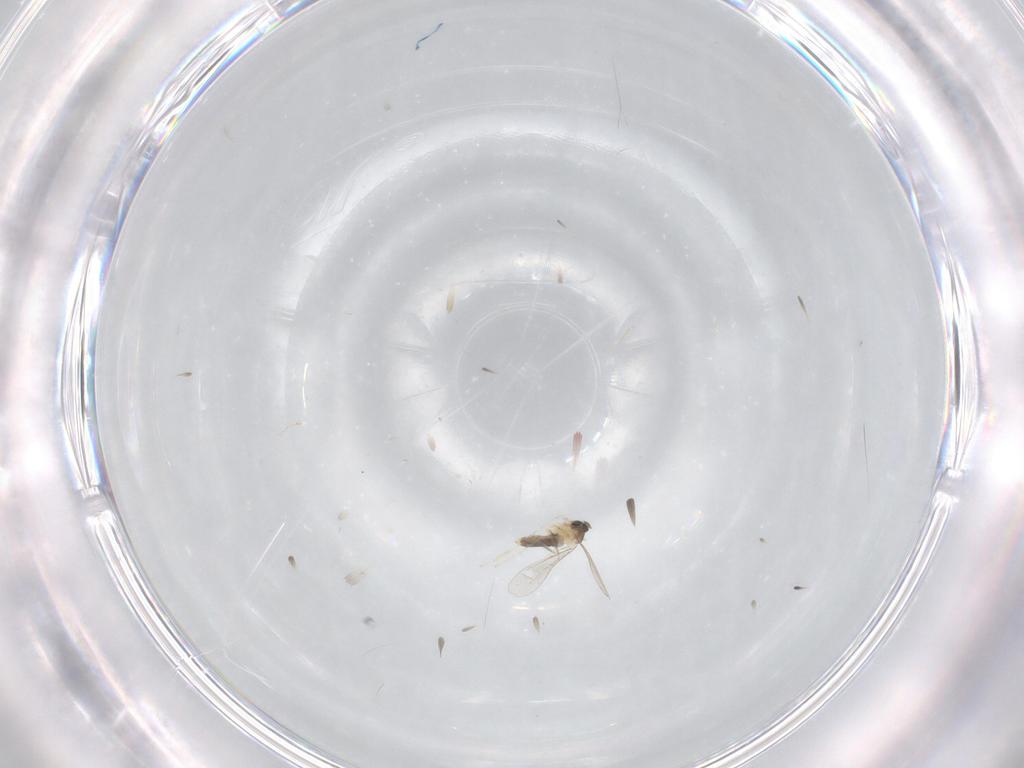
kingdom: Animalia
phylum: Arthropoda
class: Insecta
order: Diptera
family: Cecidomyiidae
